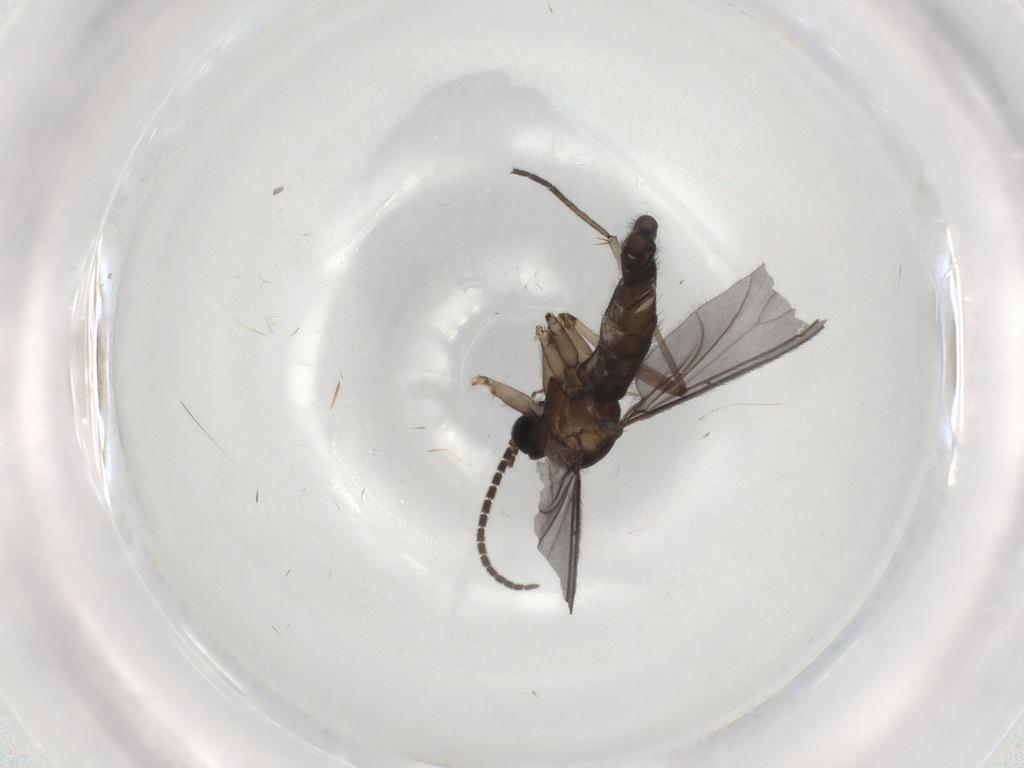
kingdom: Animalia
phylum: Arthropoda
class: Insecta
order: Diptera
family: Sciaridae
